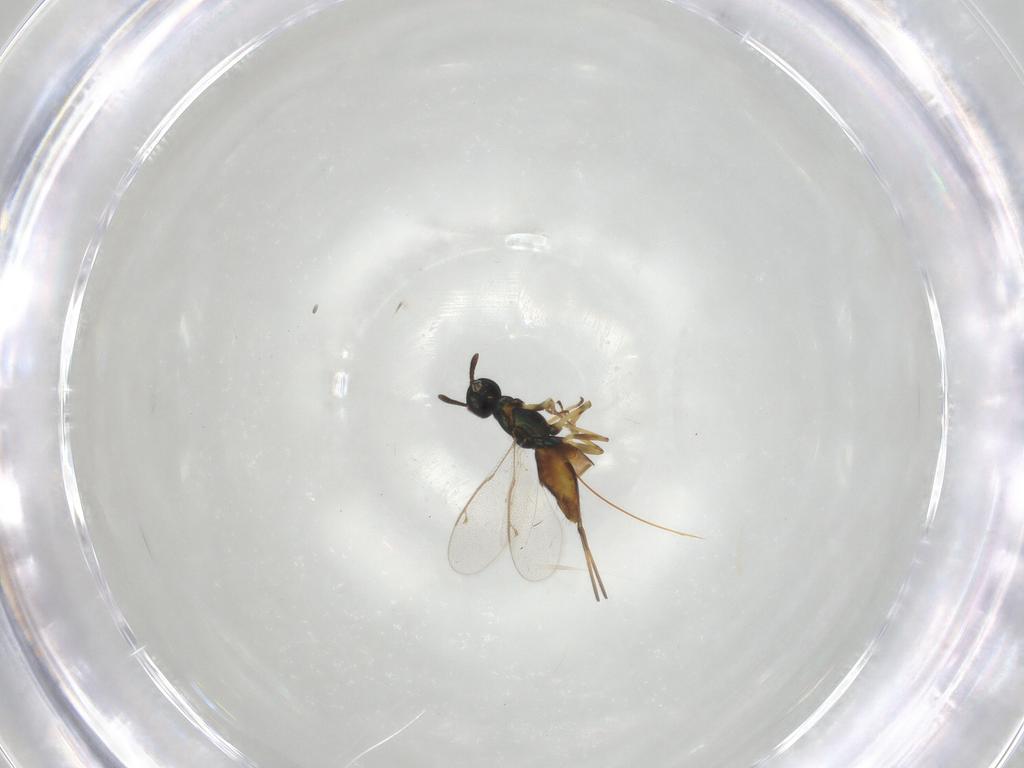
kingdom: Animalia
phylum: Arthropoda
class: Insecta
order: Hymenoptera
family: Eulophidae
